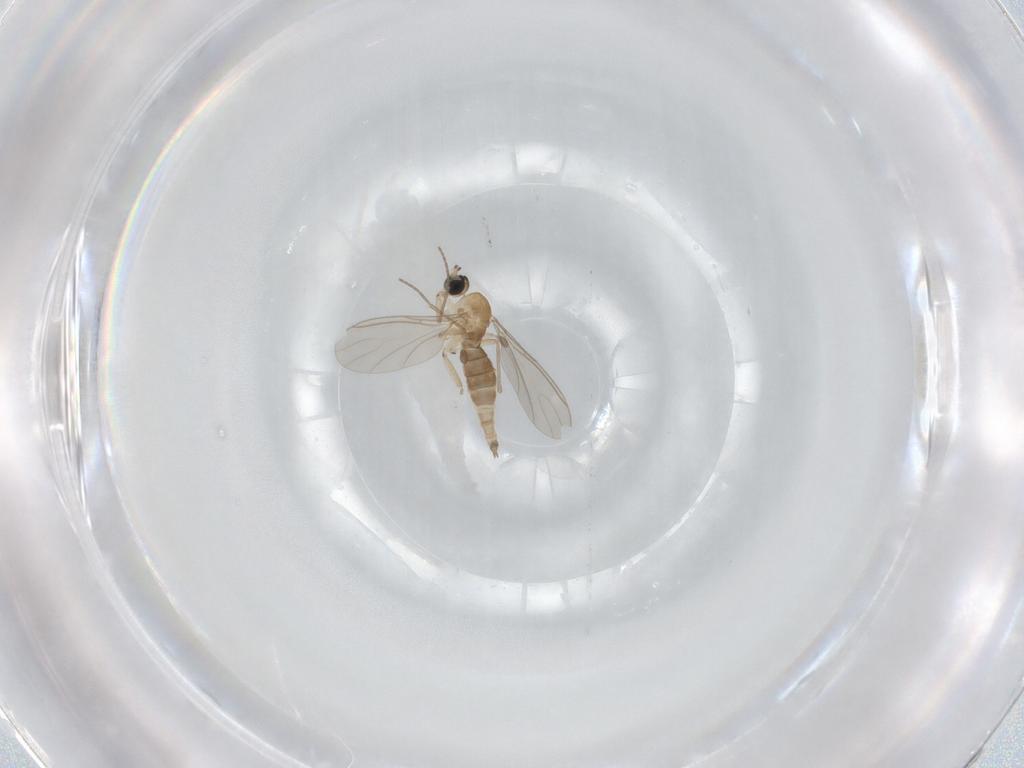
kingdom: Animalia
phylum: Arthropoda
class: Insecta
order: Diptera
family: Sciaridae
